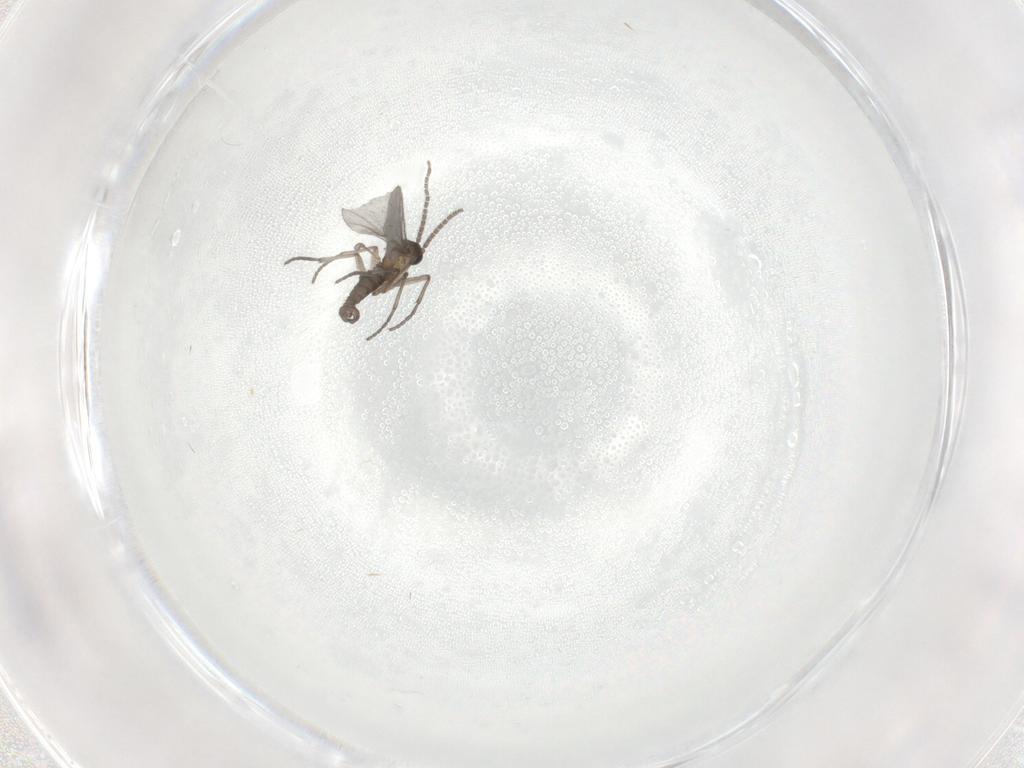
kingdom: Animalia
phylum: Arthropoda
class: Insecta
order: Diptera
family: Sciaridae
